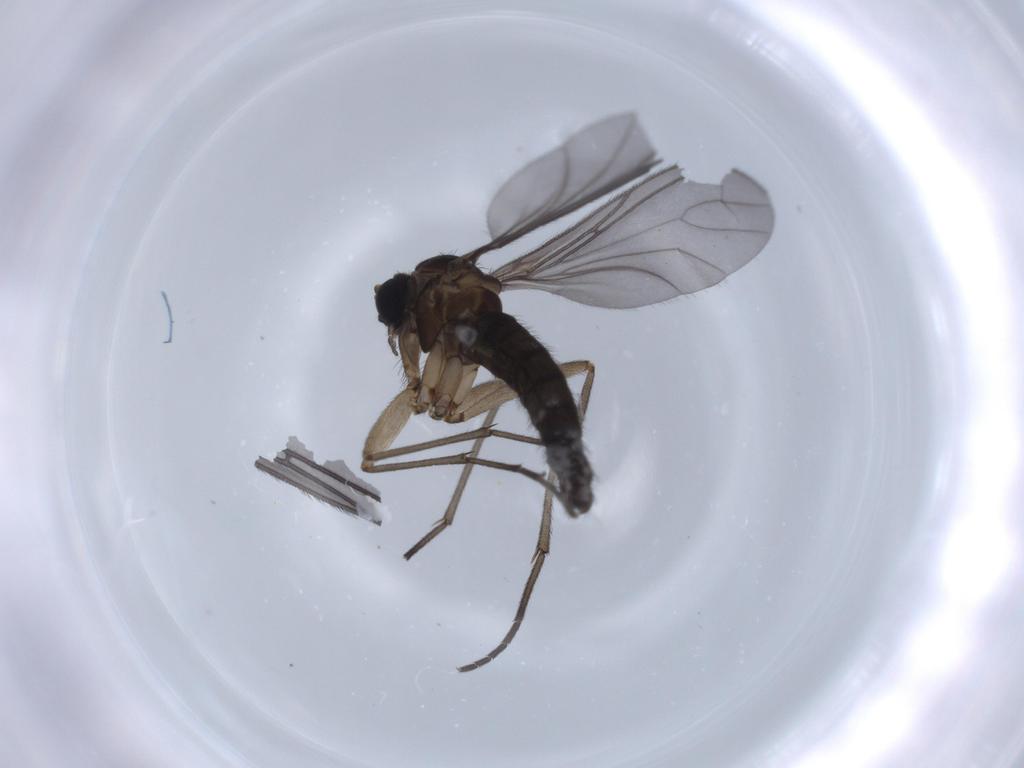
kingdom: Animalia
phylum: Arthropoda
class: Insecta
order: Diptera
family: Sciaridae
